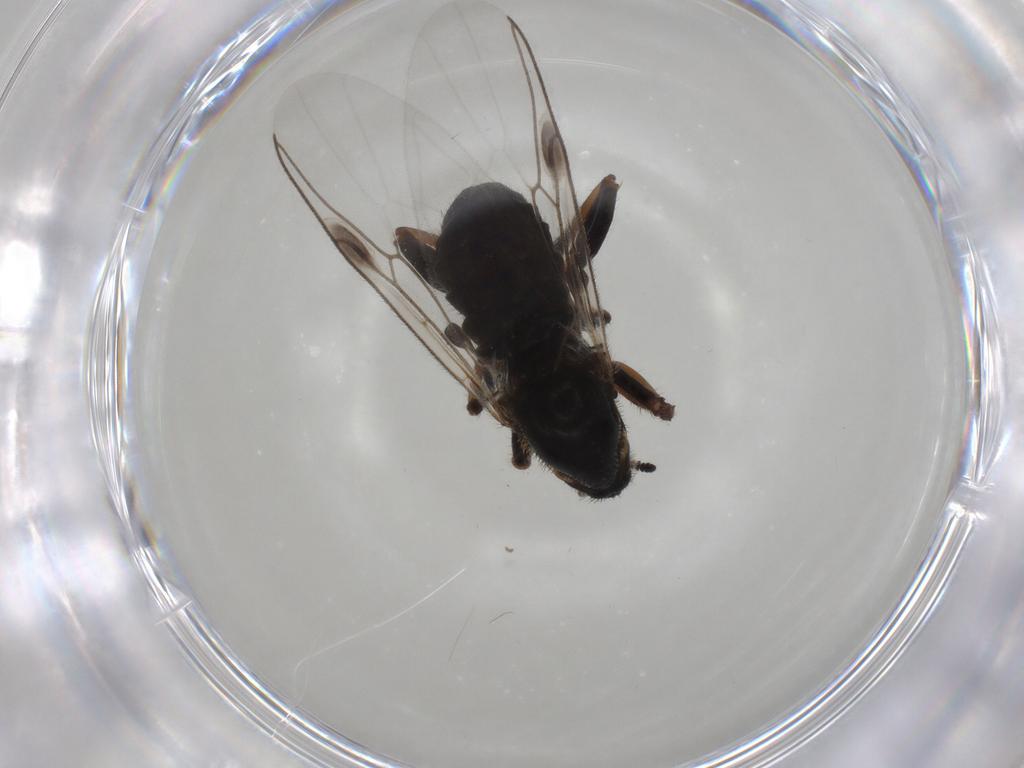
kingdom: Animalia
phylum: Arthropoda
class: Insecta
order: Diptera
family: Bibionidae
